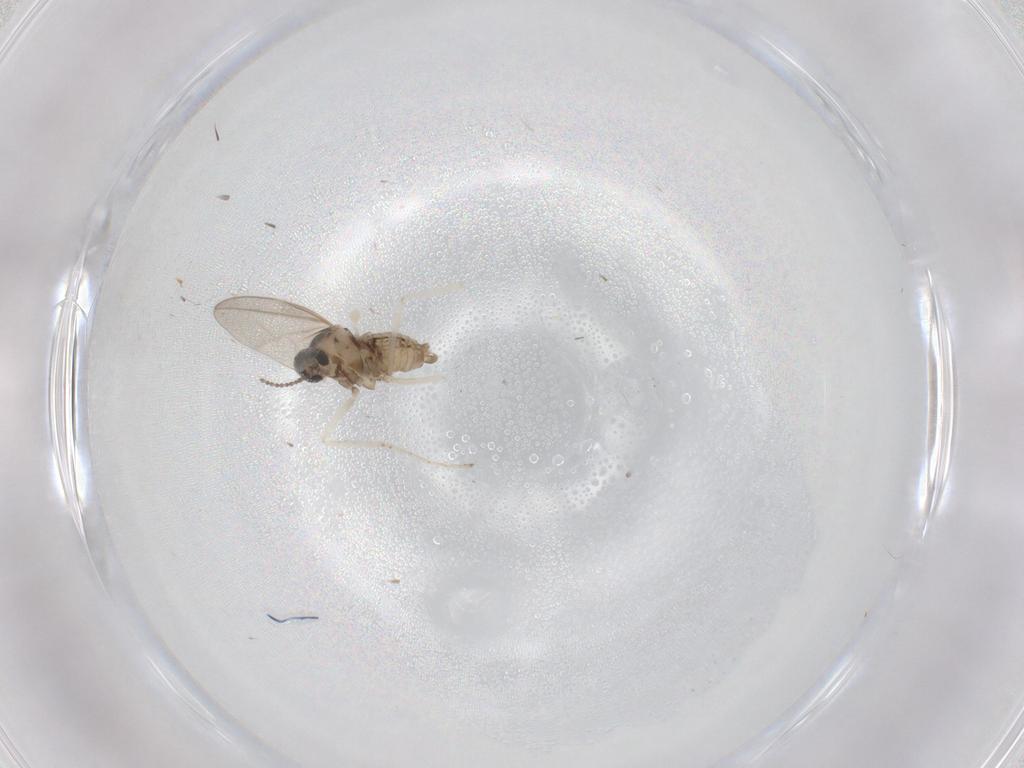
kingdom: Animalia
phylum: Arthropoda
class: Insecta
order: Diptera
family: Cecidomyiidae
